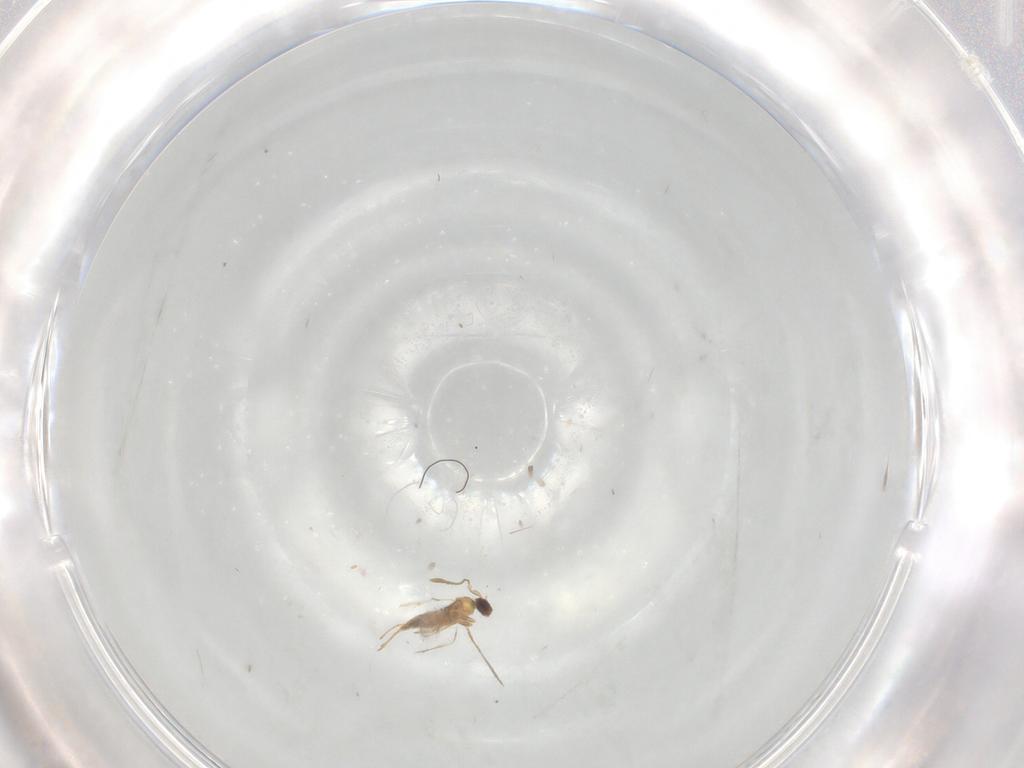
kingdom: Animalia
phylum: Arthropoda
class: Insecta
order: Hymenoptera
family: Mymaridae
